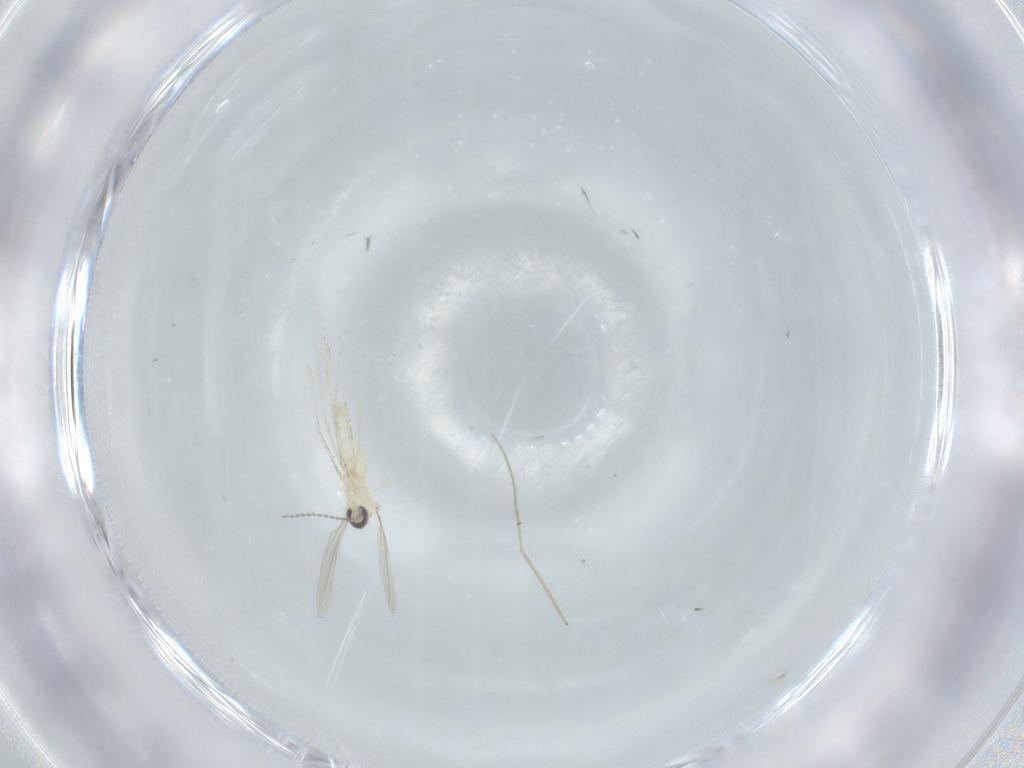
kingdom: Animalia
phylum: Arthropoda
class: Insecta
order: Diptera
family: Chironomidae
